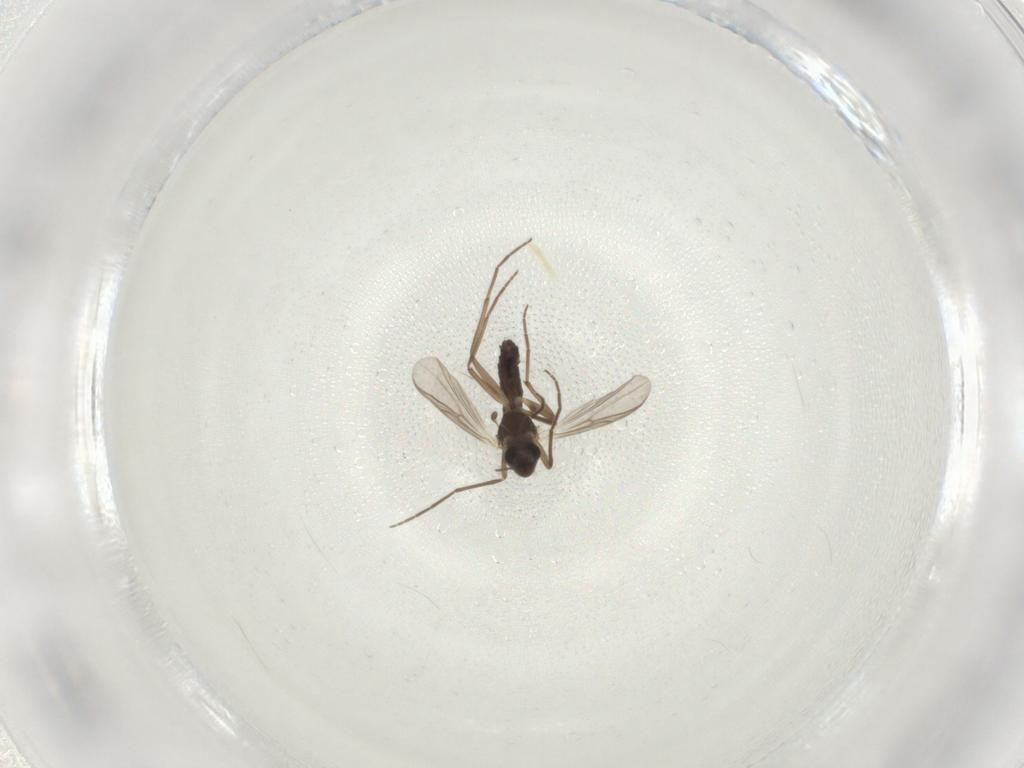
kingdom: Animalia
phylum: Arthropoda
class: Insecta
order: Diptera
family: Chironomidae
